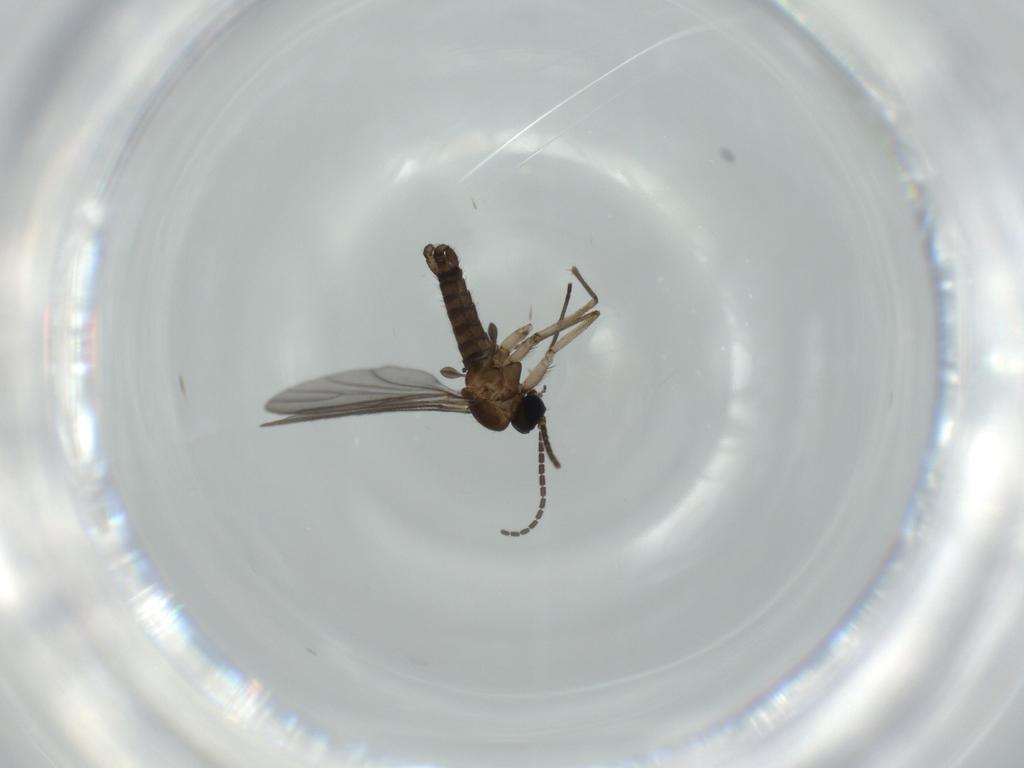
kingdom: Animalia
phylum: Arthropoda
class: Insecta
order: Diptera
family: Sciaridae
